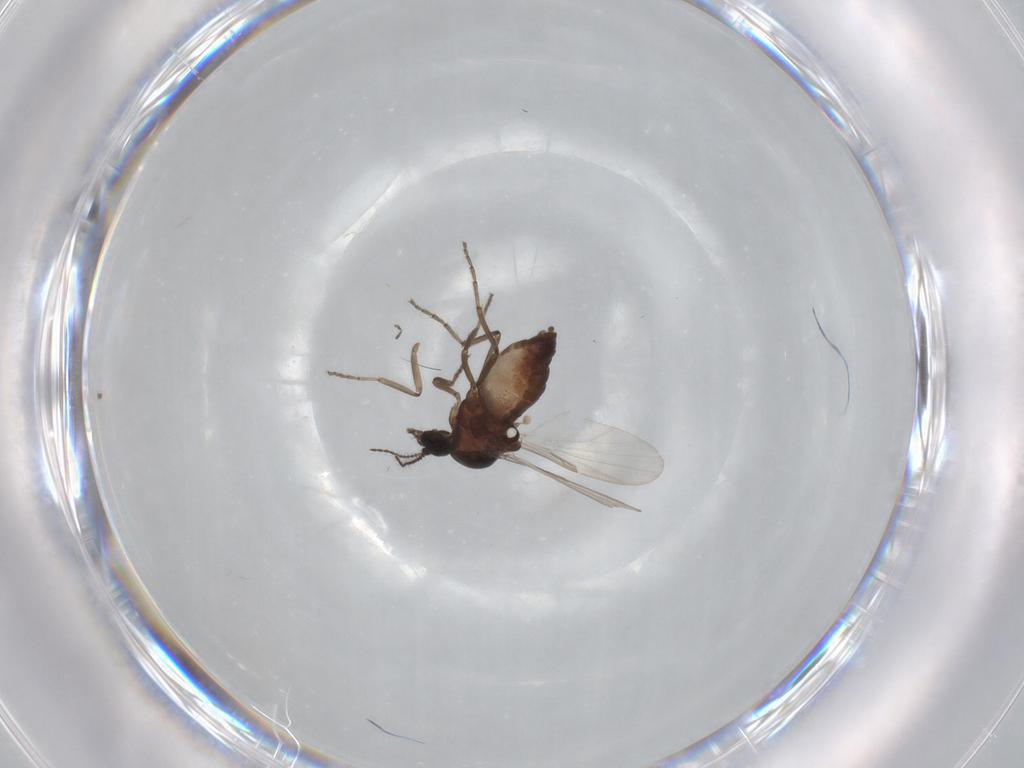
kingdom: Animalia
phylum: Arthropoda
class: Insecta
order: Diptera
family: Ceratopogonidae
